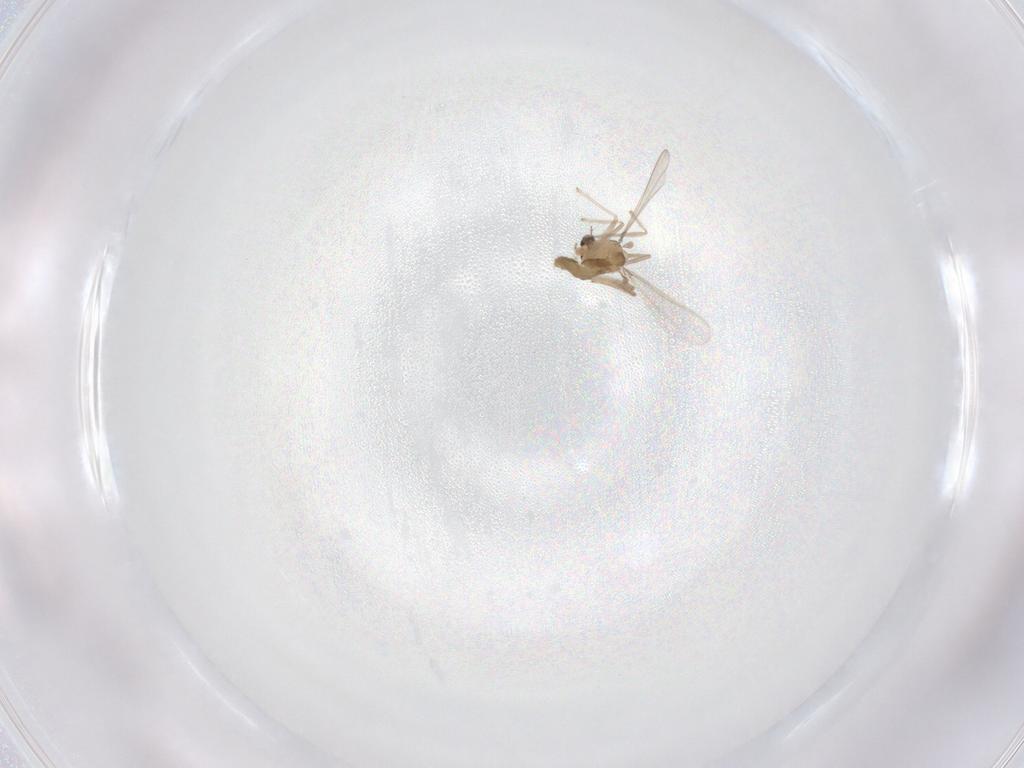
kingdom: Animalia
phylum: Arthropoda
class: Insecta
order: Diptera
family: Chironomidae
